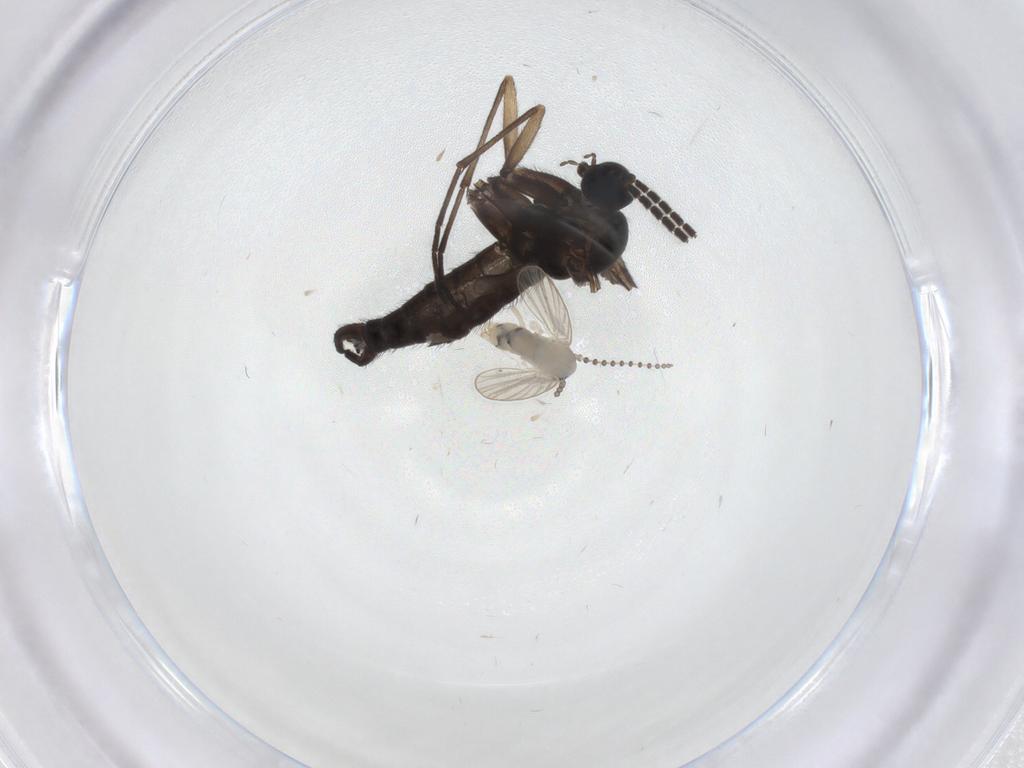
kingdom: Animalia
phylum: Arthropoda
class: Insecta
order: Diptera
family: Psychodidae
